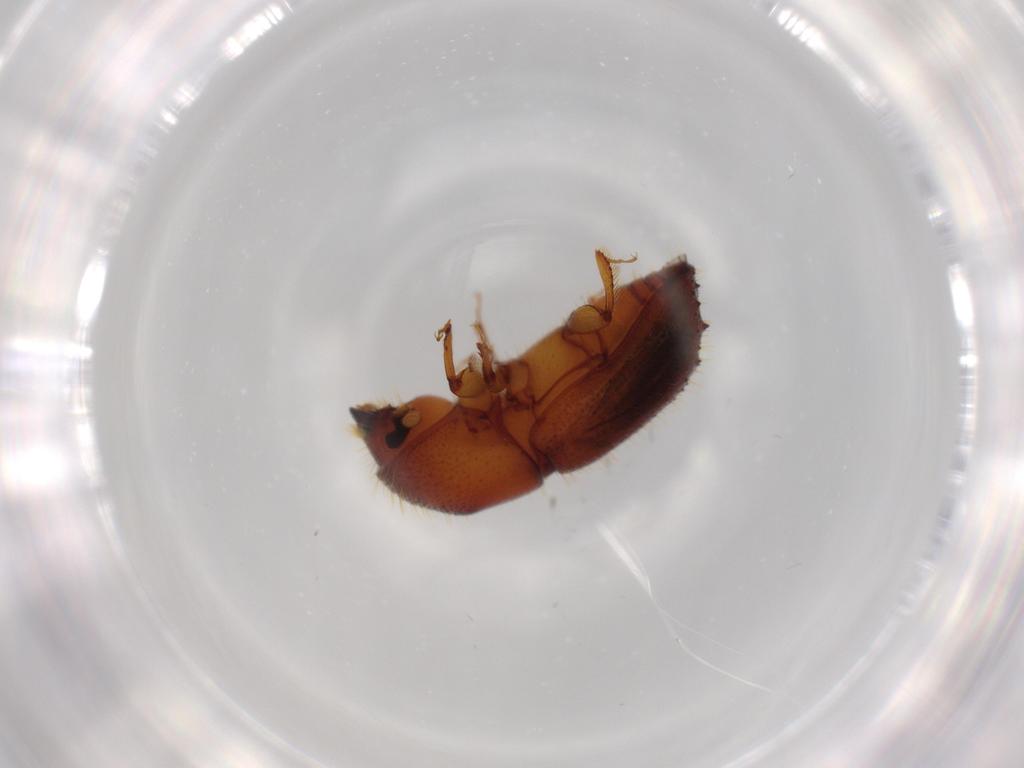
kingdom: Animalia
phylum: Arthropoda
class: Insecta
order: Coleoptera
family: Curculionidae
